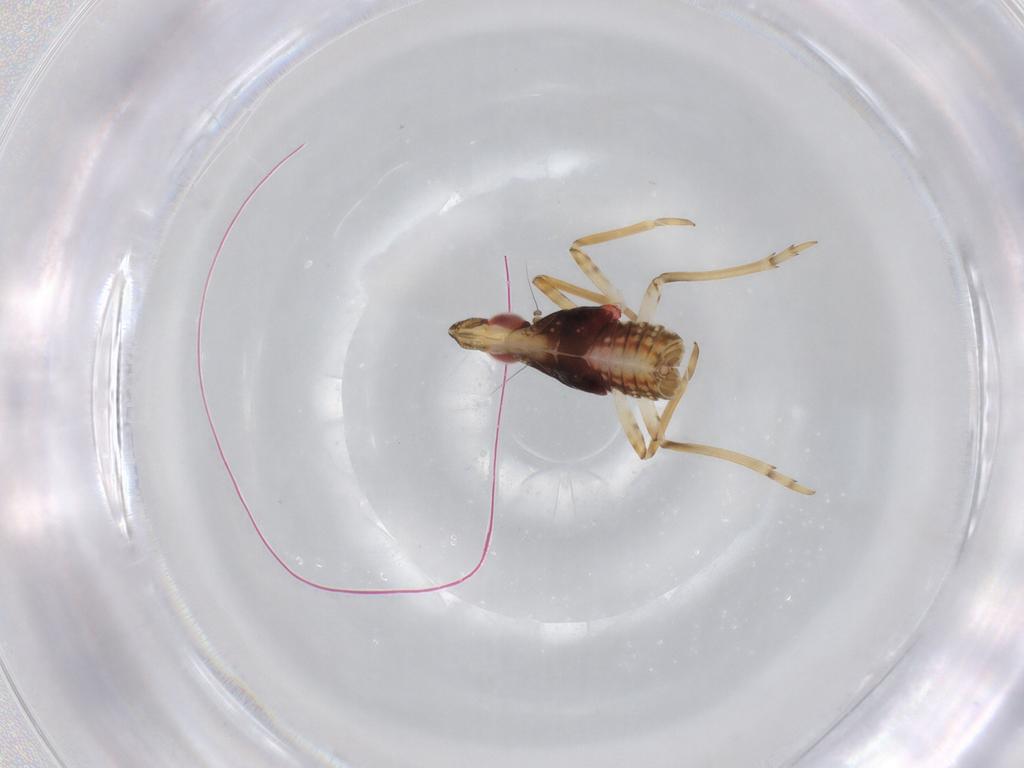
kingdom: Animalia
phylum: Arthropoda
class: Insecta
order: Hemiptera
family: Fulgoroidea_incertae_sedis
